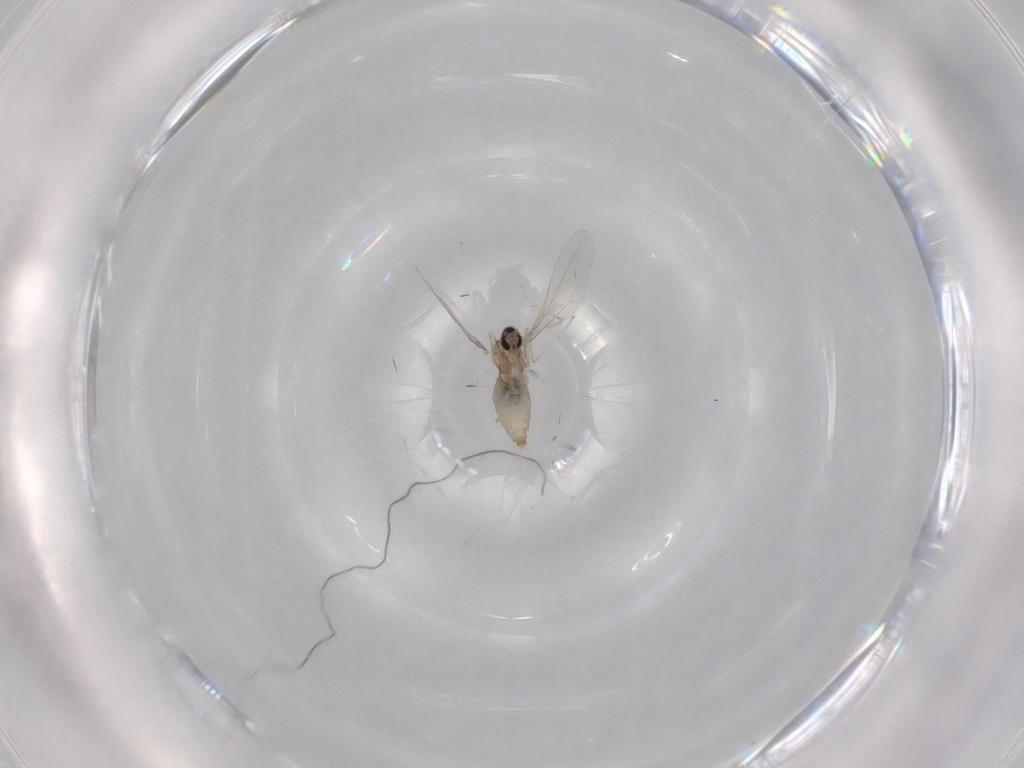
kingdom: Animalia
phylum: Arthropoda
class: Insecta
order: Diptera
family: Cecidomyiidae
